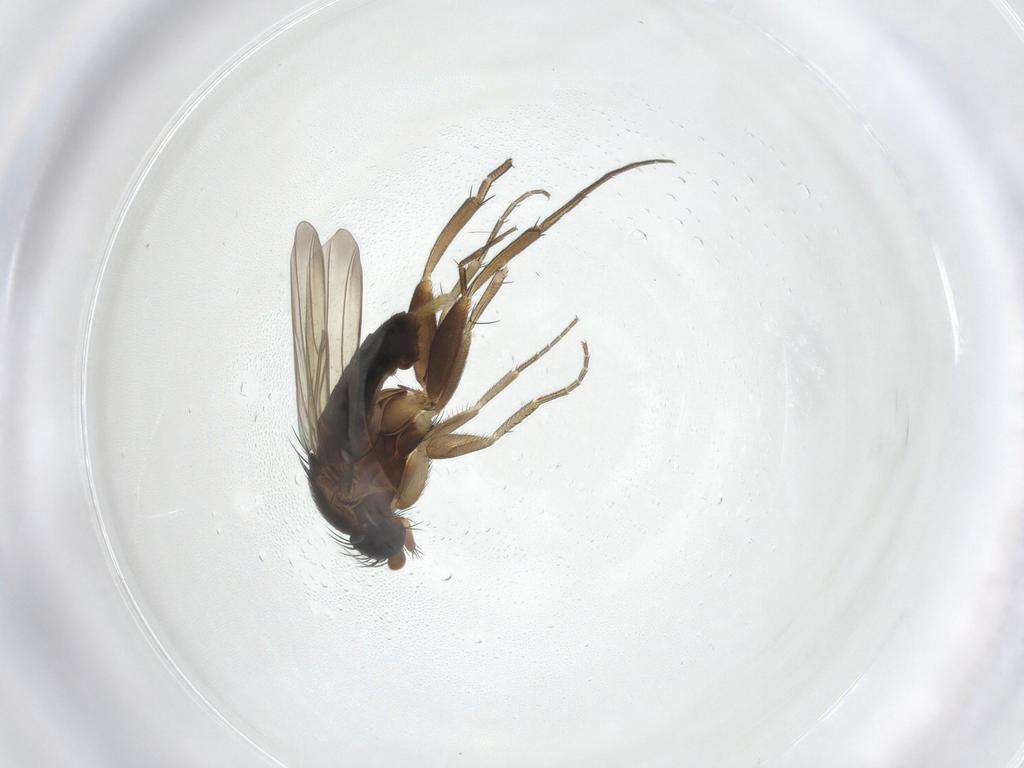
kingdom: Animalia
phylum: Arthropoda
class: Insecta
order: Diptera
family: Phoridae
